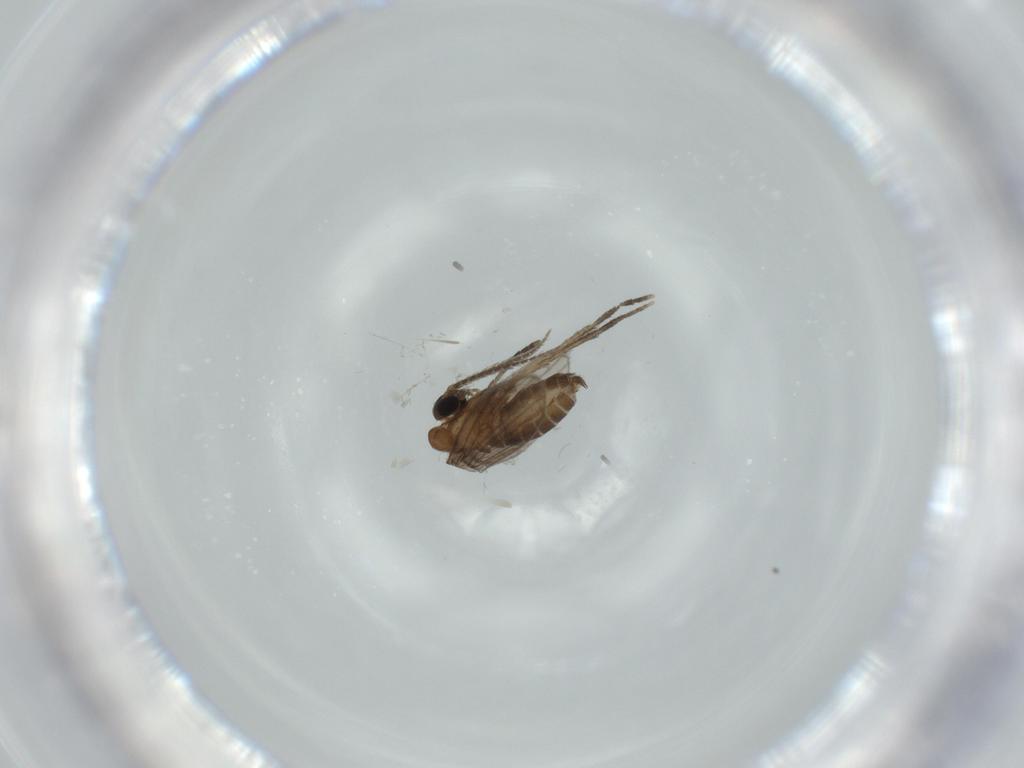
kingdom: Animalia
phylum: Arthropoda
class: Insecta
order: Diptera
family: Psychodidae
